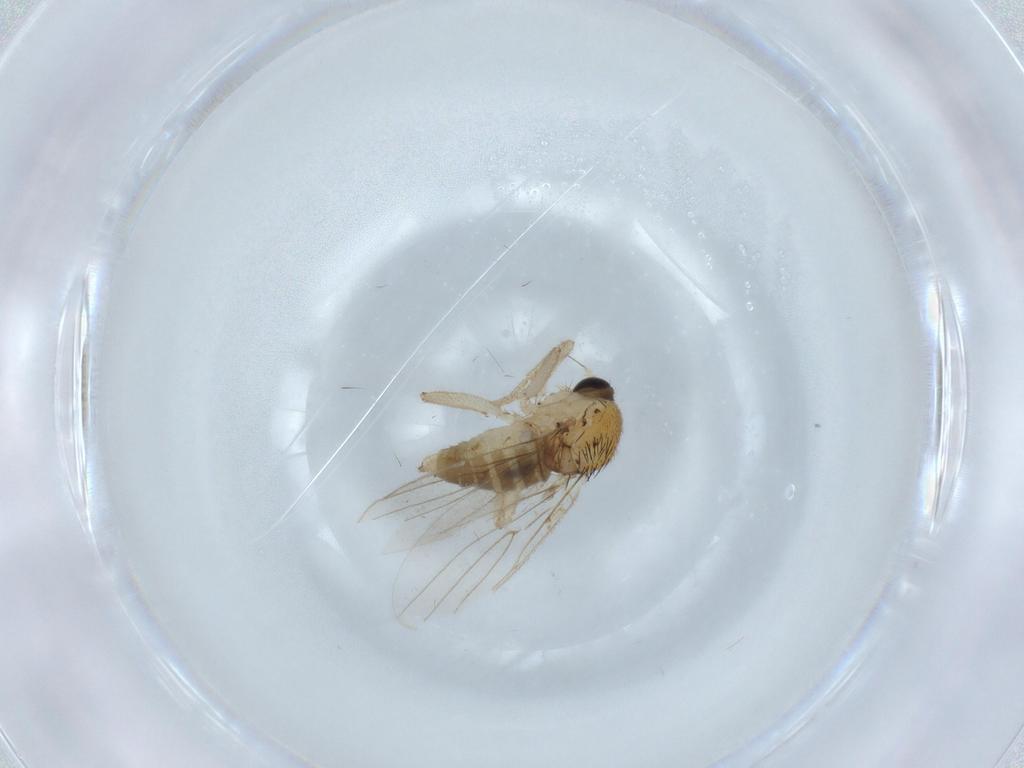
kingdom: Animalia
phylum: Arthropoda
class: Insecta
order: Diptera
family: Hybotidae
